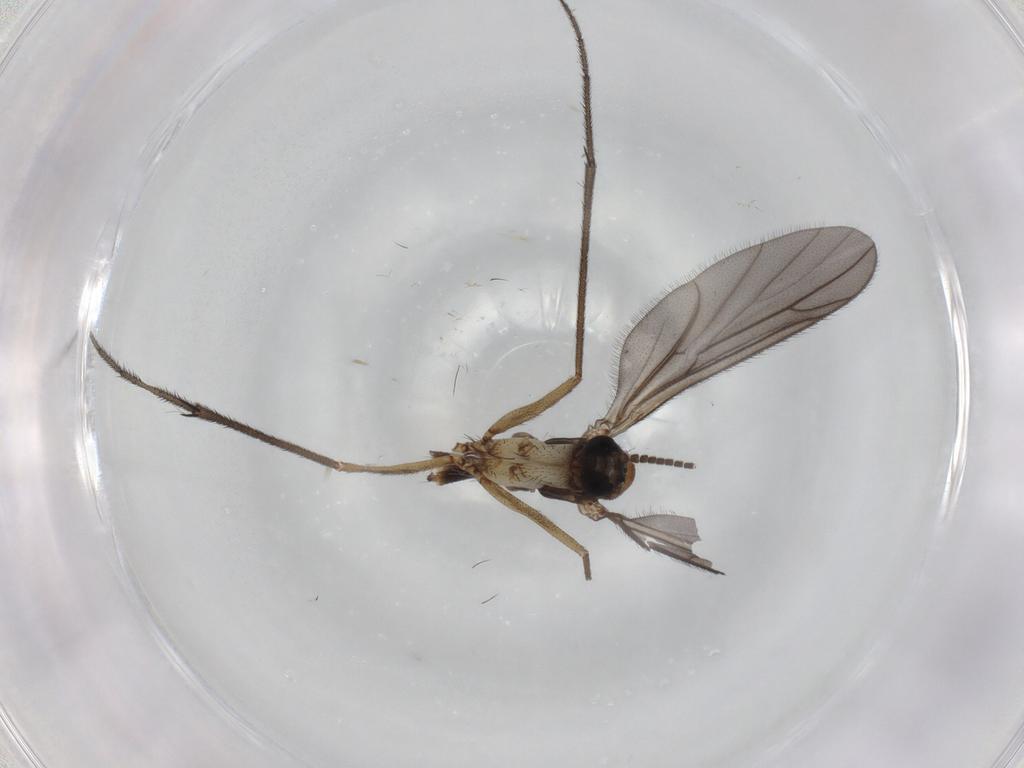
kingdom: Animalia
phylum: Arthropoda
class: Insecta
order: Diptera
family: Ditomyiidae
